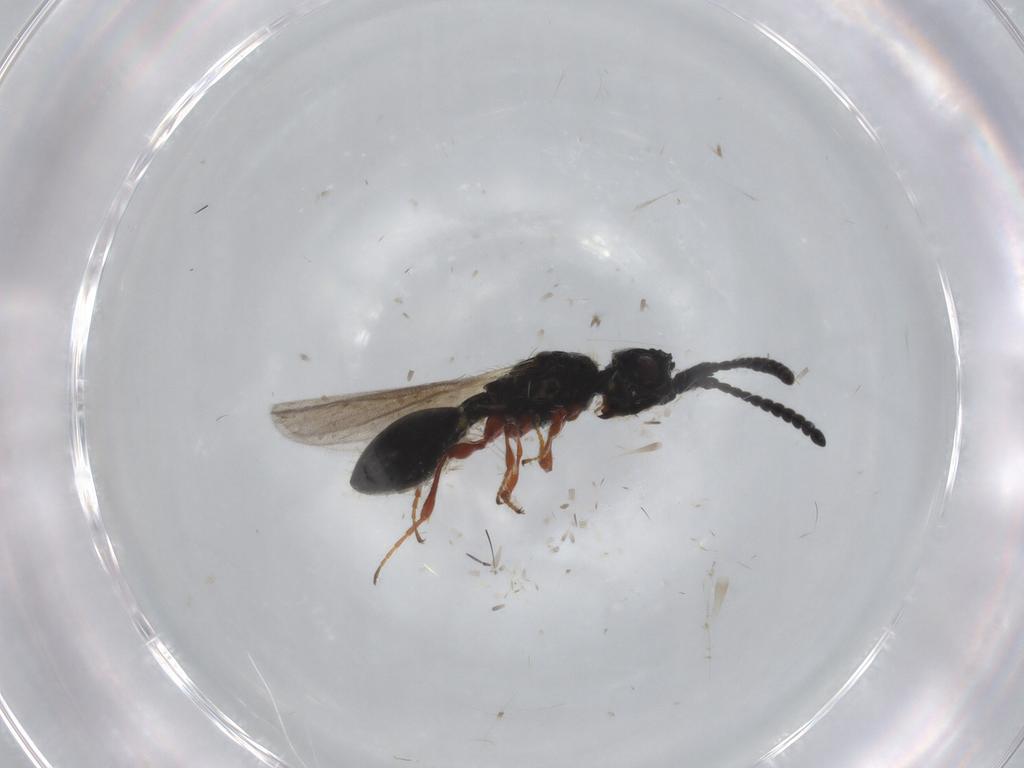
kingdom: Animalia
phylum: Arthropoda
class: Insecta
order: Hymenoptera
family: Diapriidae
